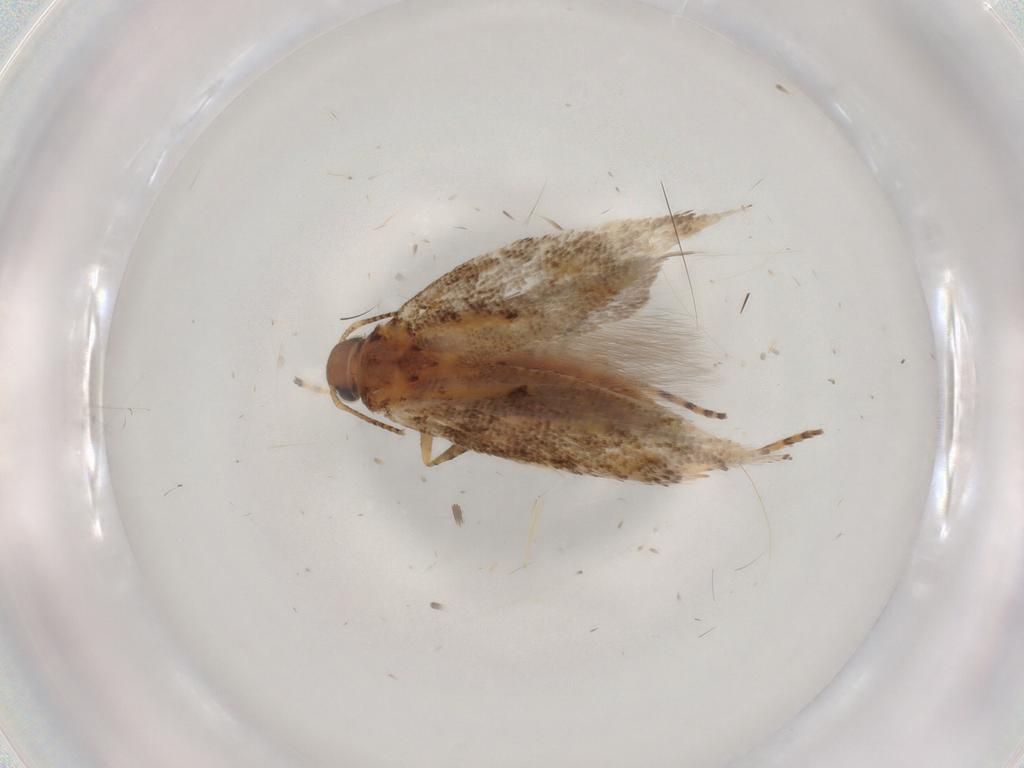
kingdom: Animalia
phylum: Arthropoda
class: Insecta
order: Lepidoptera
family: Gelechiidae
